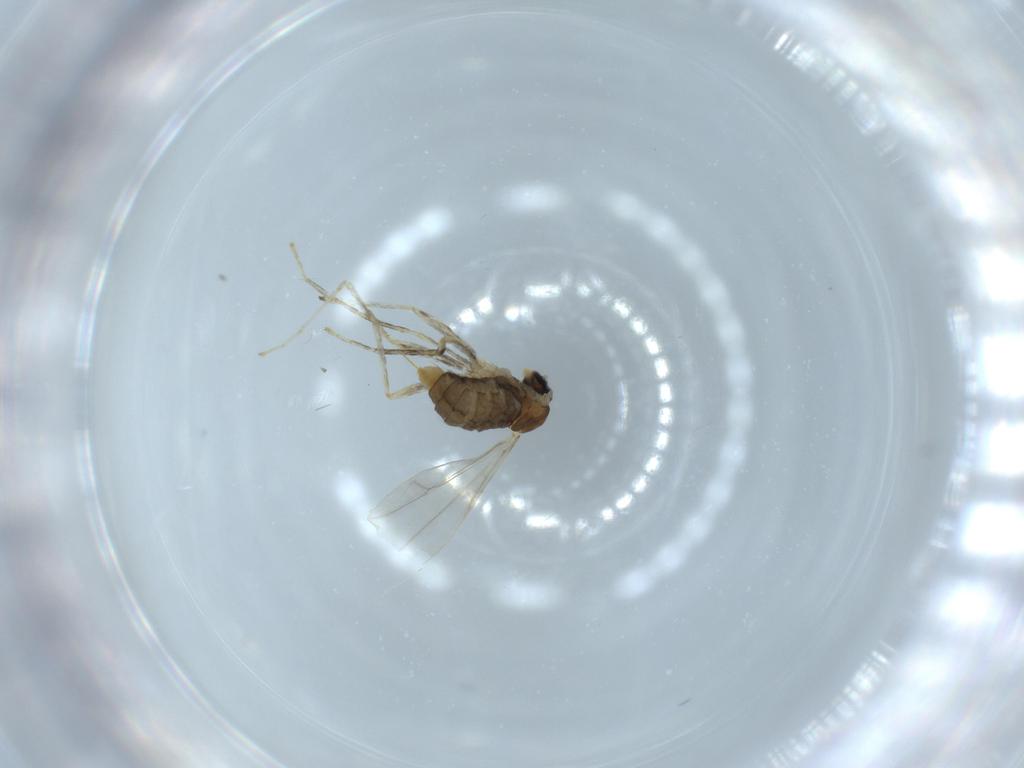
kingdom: Animalia
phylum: Arthropoda
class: Insecta
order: Diptera
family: Cecidomyiidae
